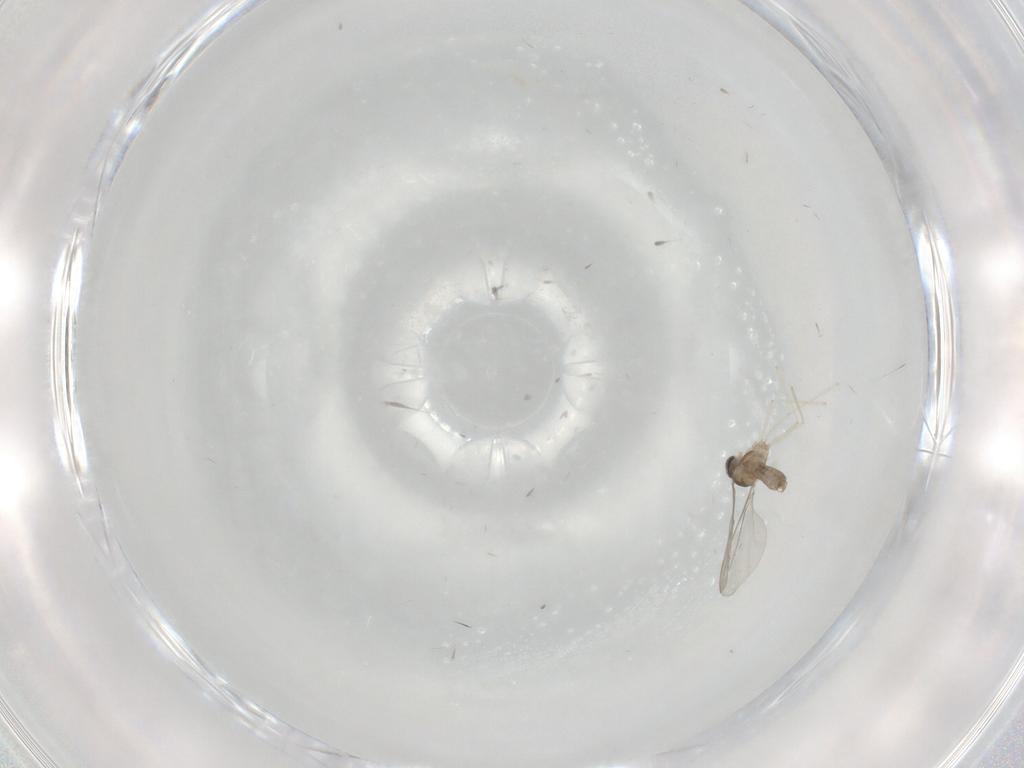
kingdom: Animalia
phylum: Arthropoda
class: Insecta
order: Diptera
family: Cecidomyiidae
